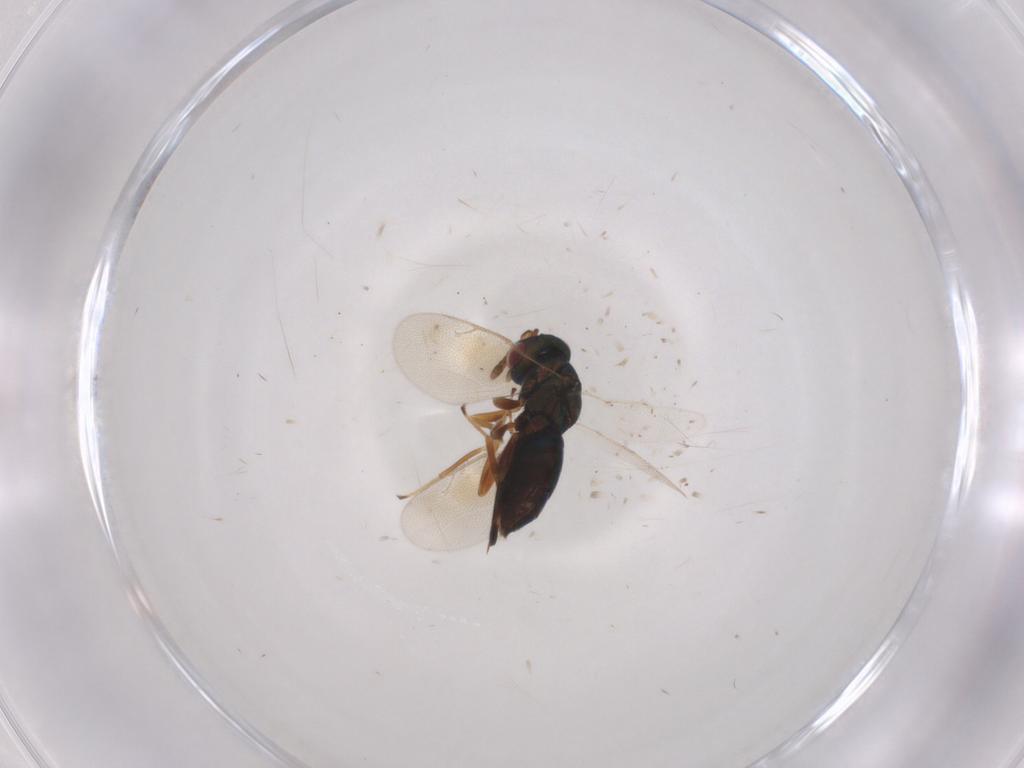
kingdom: Animalia
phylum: Arthropoda
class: Insecta
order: Hymenoptera
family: Pteromalidae
